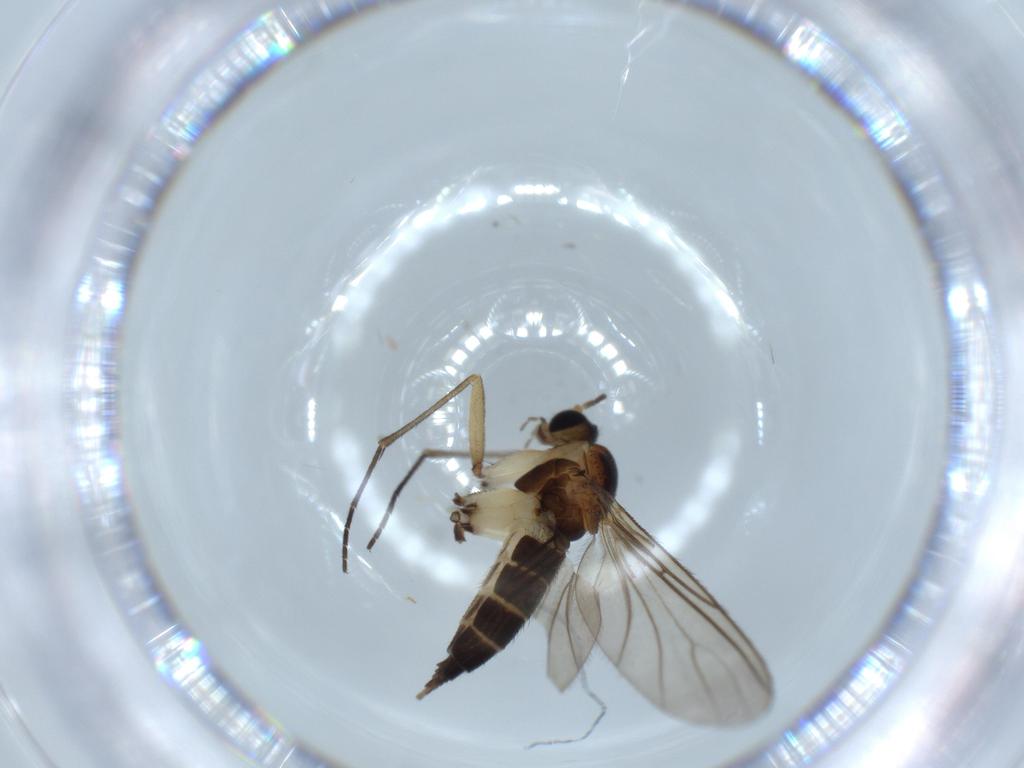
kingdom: Animalia
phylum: Arthropoda
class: Insecta
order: Diptera
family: Sciaridae
